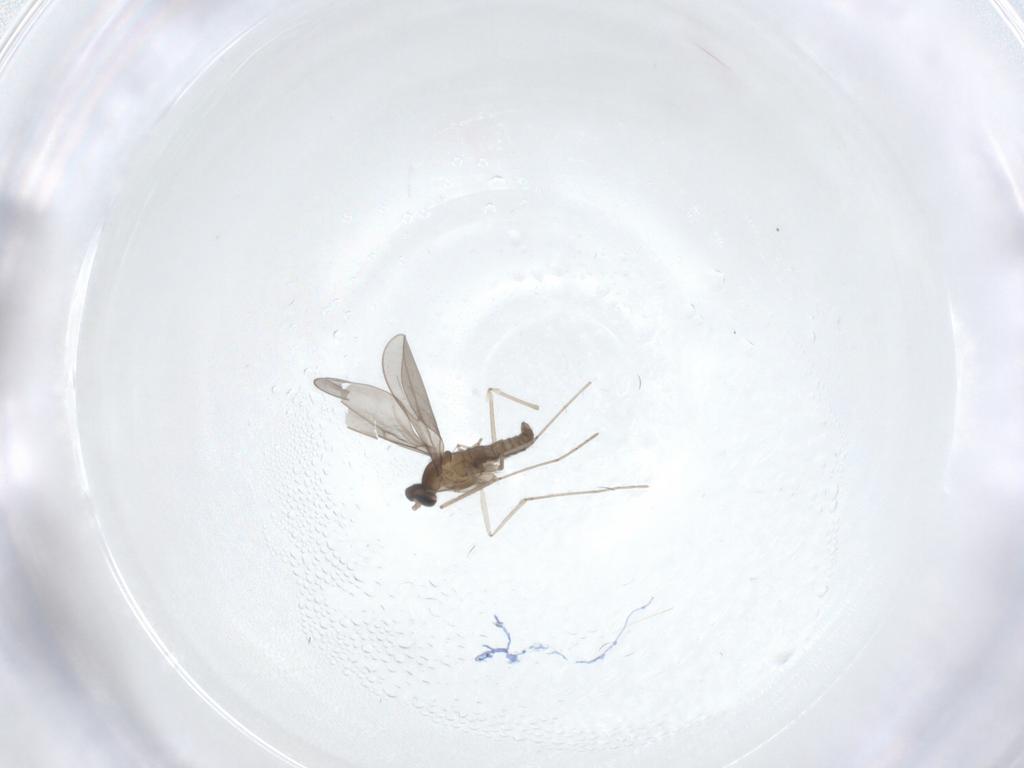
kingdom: Animalia
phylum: Arthropoda
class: Insecta
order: Diptera
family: Cecidomyiidae
